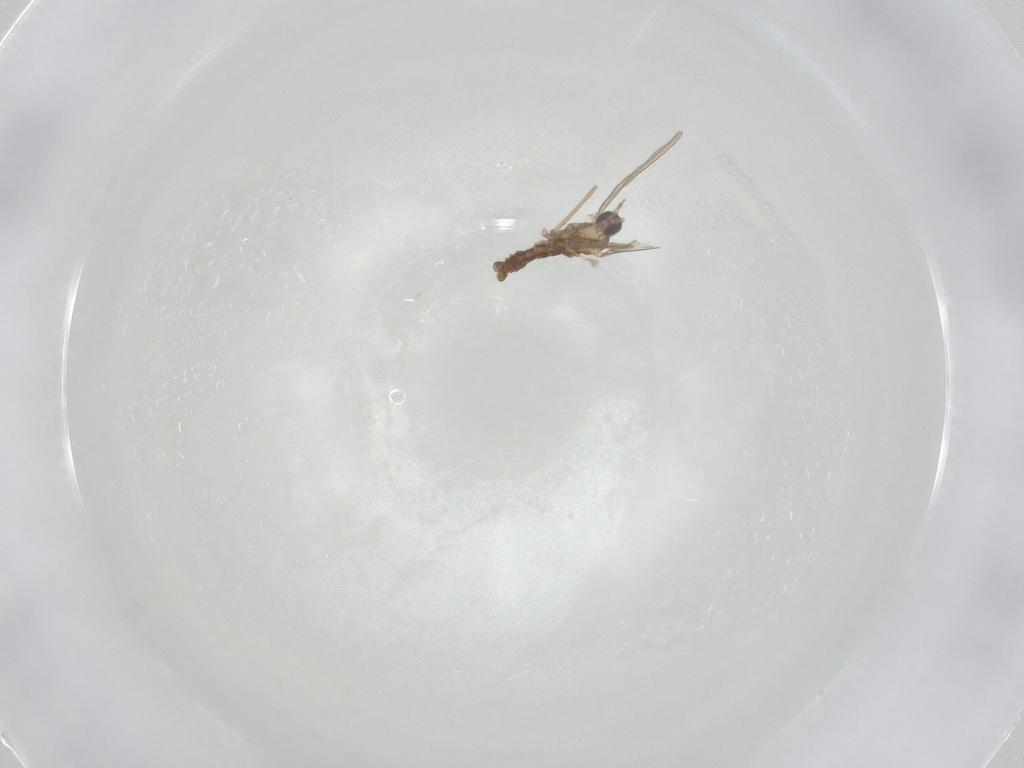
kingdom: Animalia
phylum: Arthropoda
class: Insecta
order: Diptera
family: Cecidomyiidae
